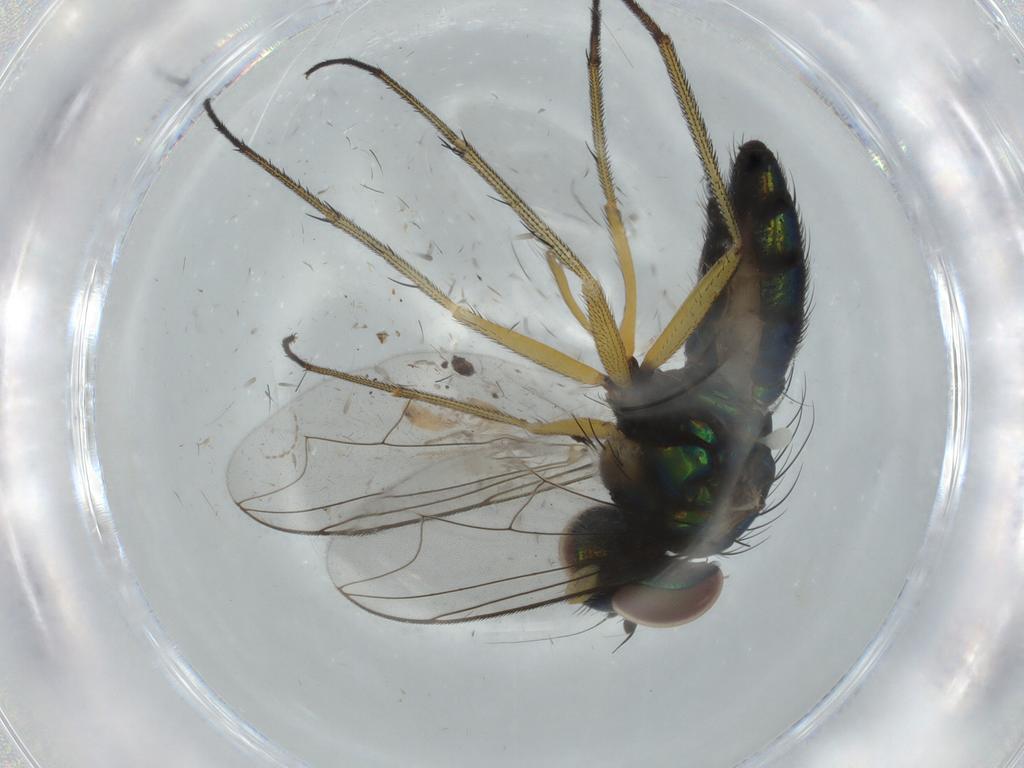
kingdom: Animalia
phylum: Arthropoda
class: Insecta
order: Diptera
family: Dolichopodidae
